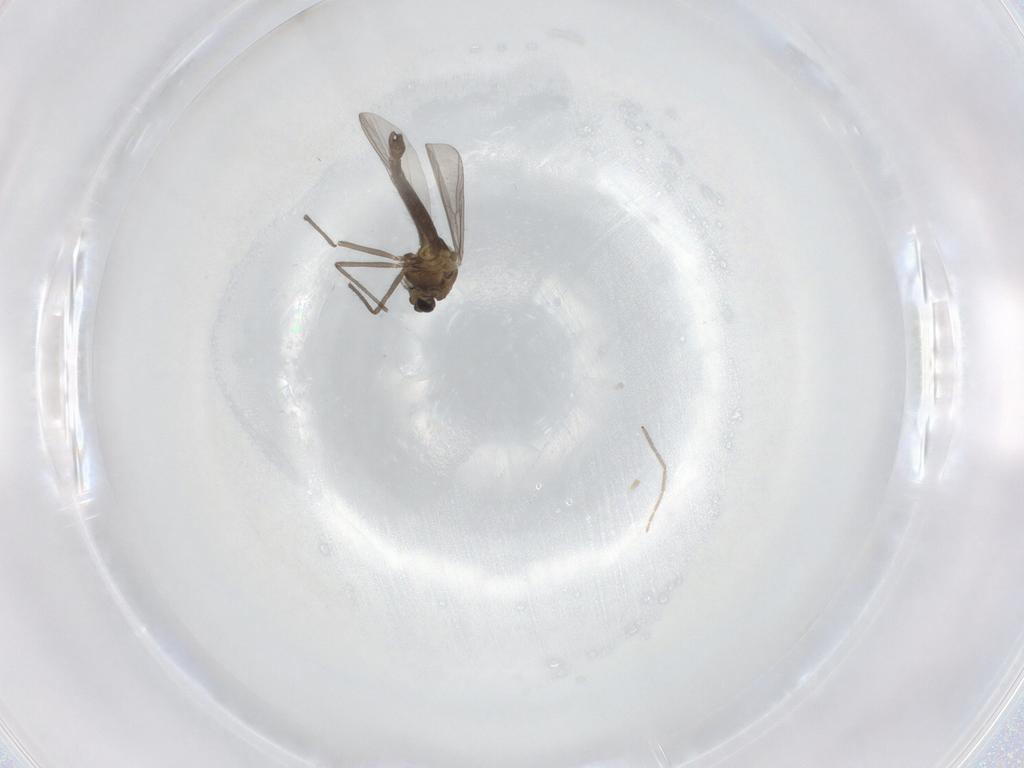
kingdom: Animalia
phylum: Arthropoda
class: Insecta
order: Diptera
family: Chironomidae
